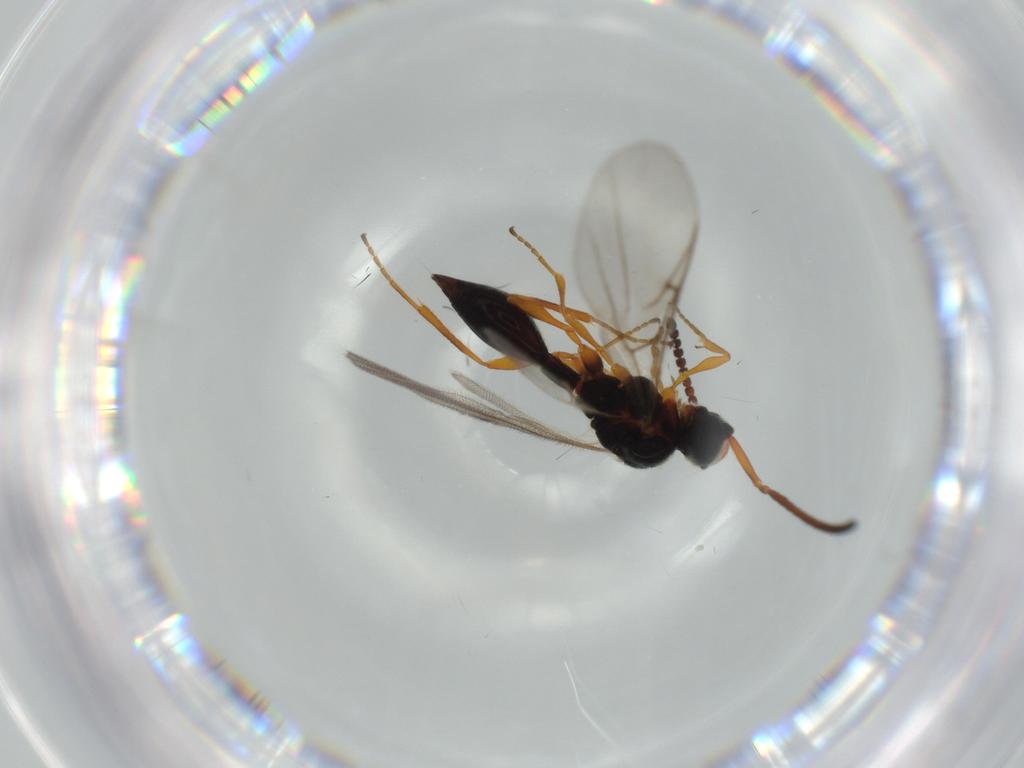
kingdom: Animalia
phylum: Arthropoda
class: Insecta
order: Hymenoptera
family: Diapriidae
